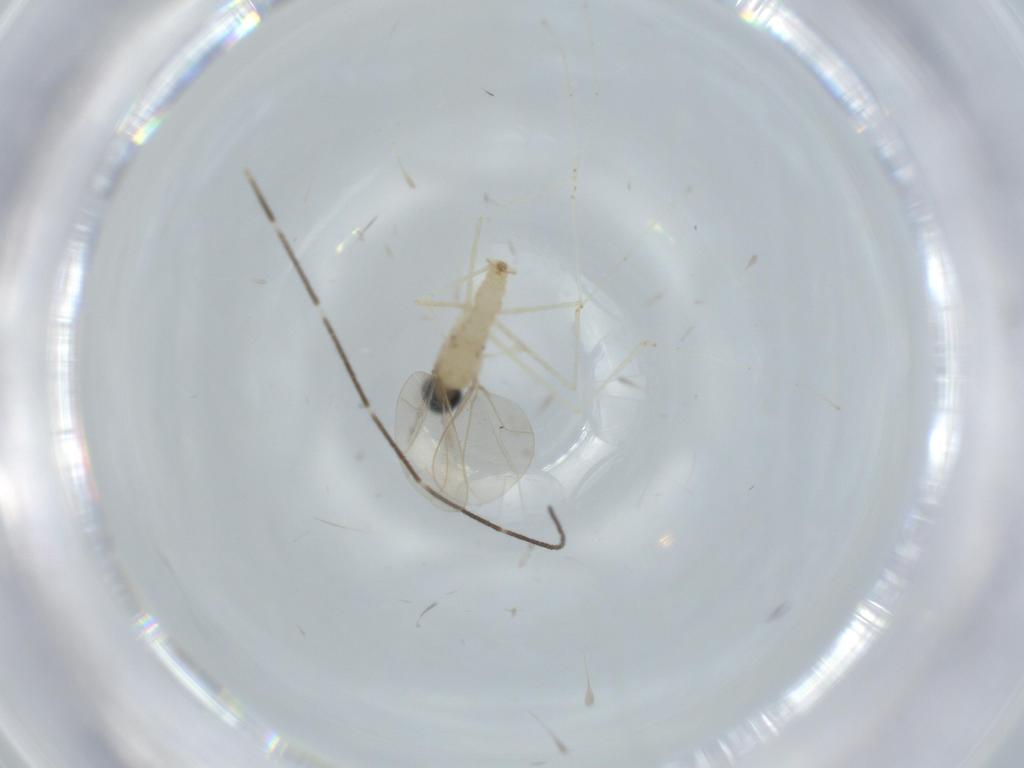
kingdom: Animalia
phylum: Arthropoda
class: Insecta
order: Diptera
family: Cecidomyiidae
